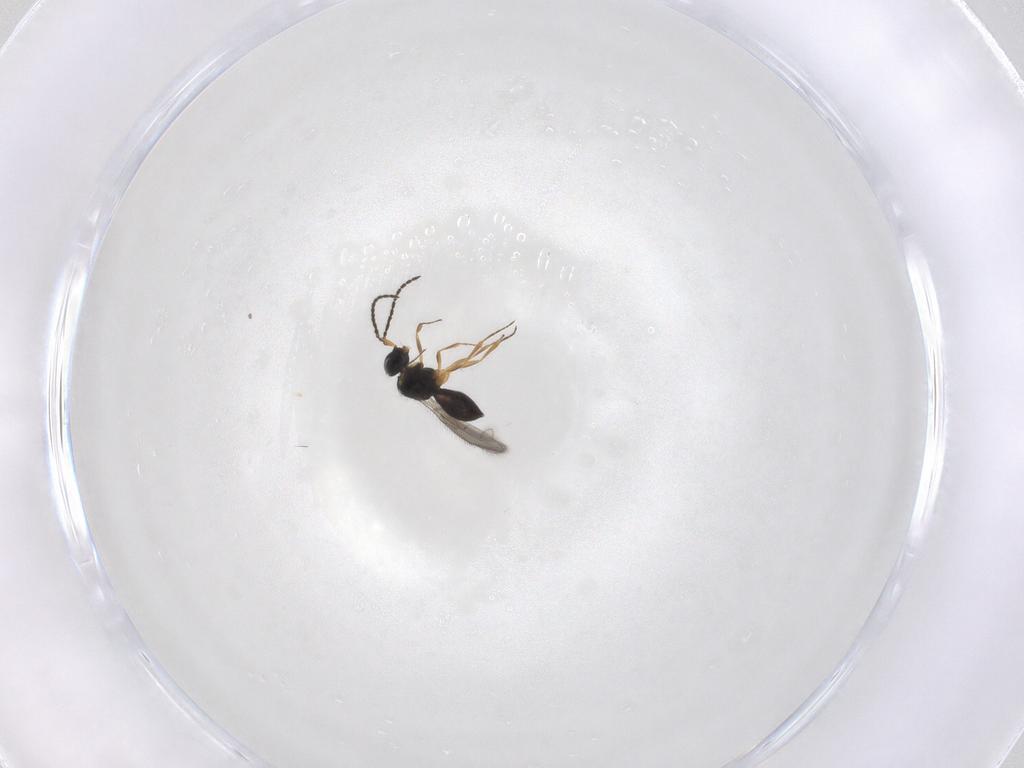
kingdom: Animalia
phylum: Arthropoda
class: Insecta
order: Hymenoptera
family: Scelionidae
